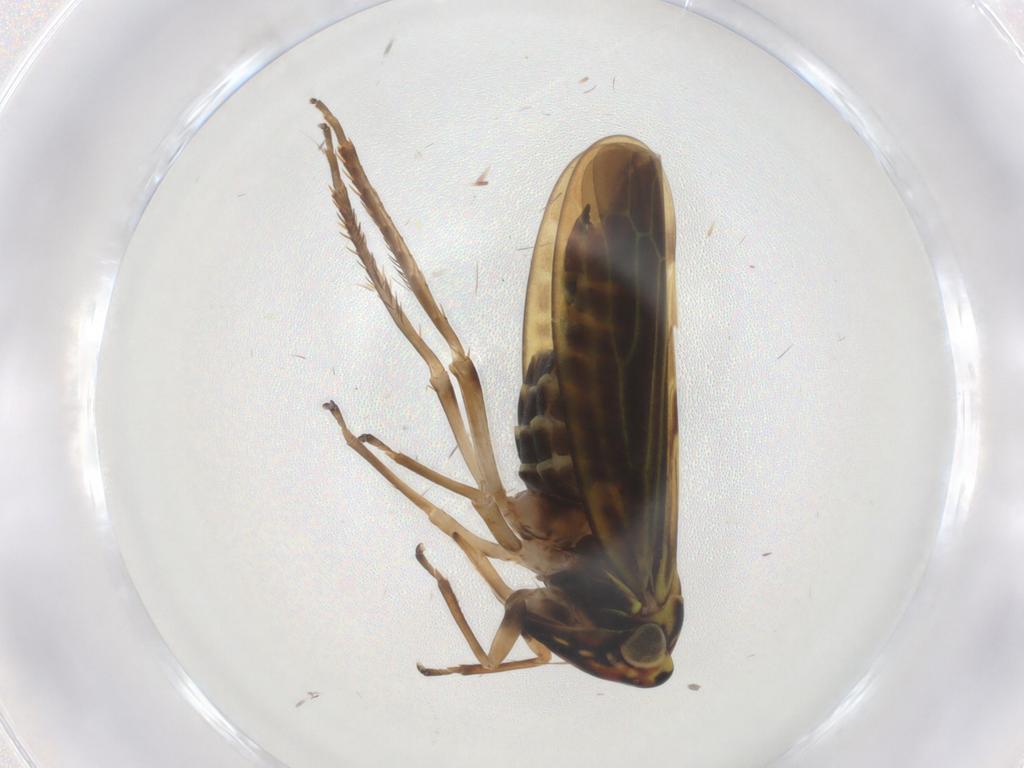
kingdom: Animalia
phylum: Arthropoda
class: Insecta
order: Hemiptera
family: Cicadellidae
